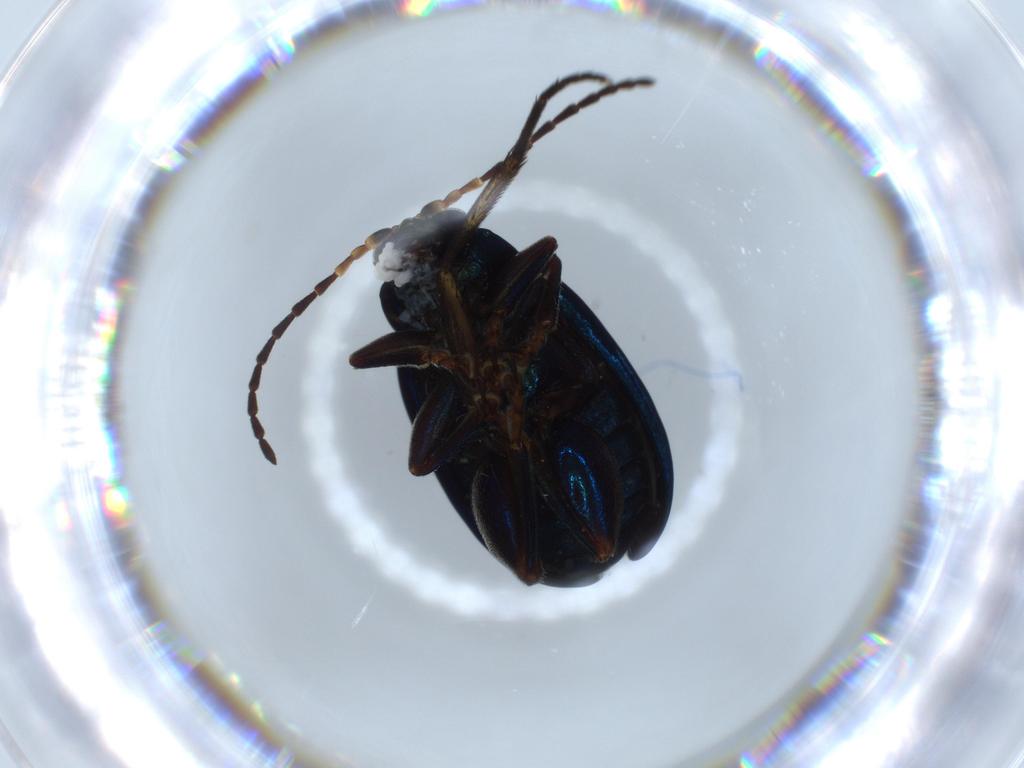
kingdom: Animalia
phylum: Arthropoda
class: Insecta
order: Coleoptera
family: Chrysomelidae
